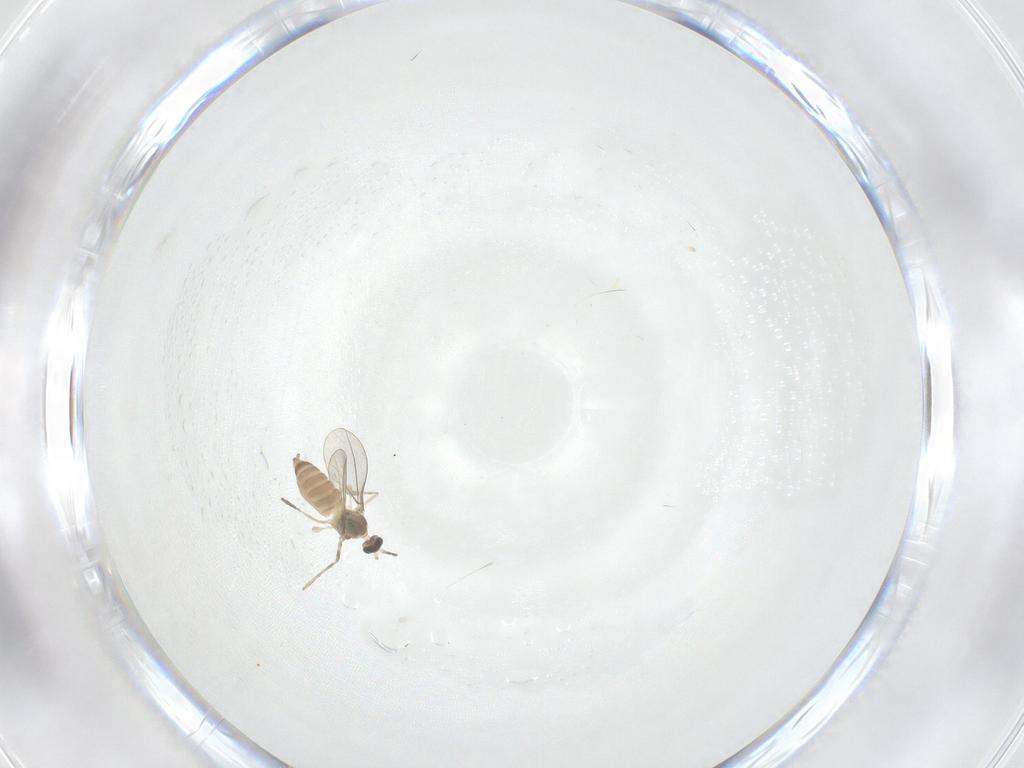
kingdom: Animalia
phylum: Arthropoda
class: Insecta
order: Diptera
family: Cecidomyiidae
